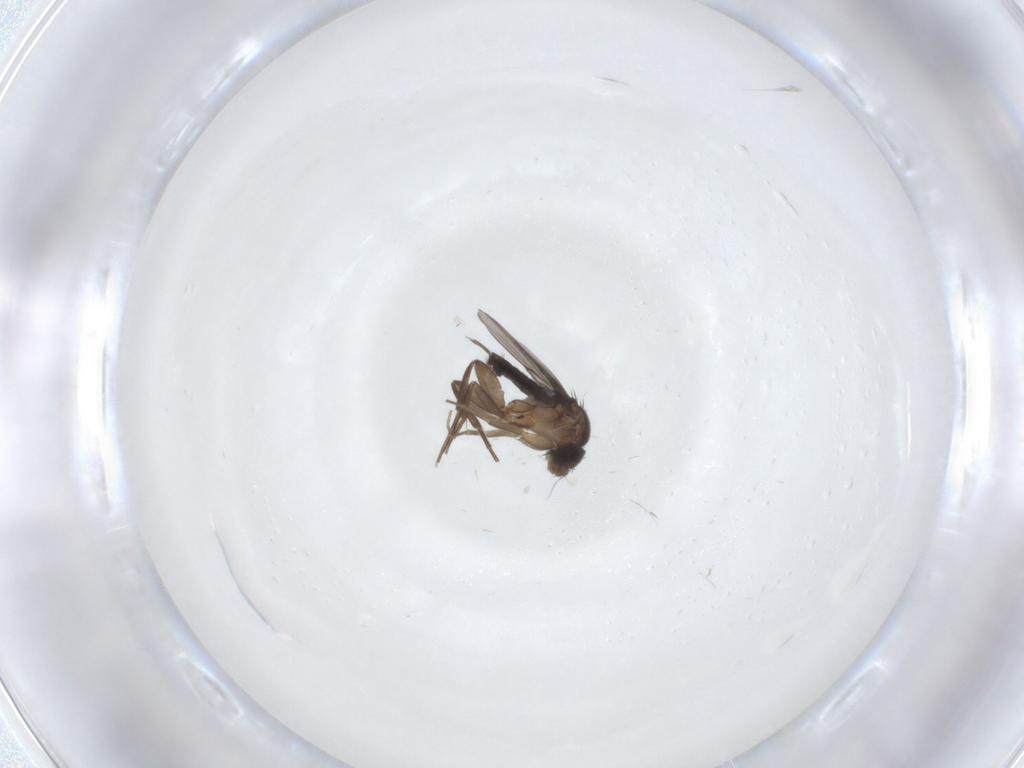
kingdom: Animalia
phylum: Arthropoda
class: Insecta
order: Diptera
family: Phoridae
